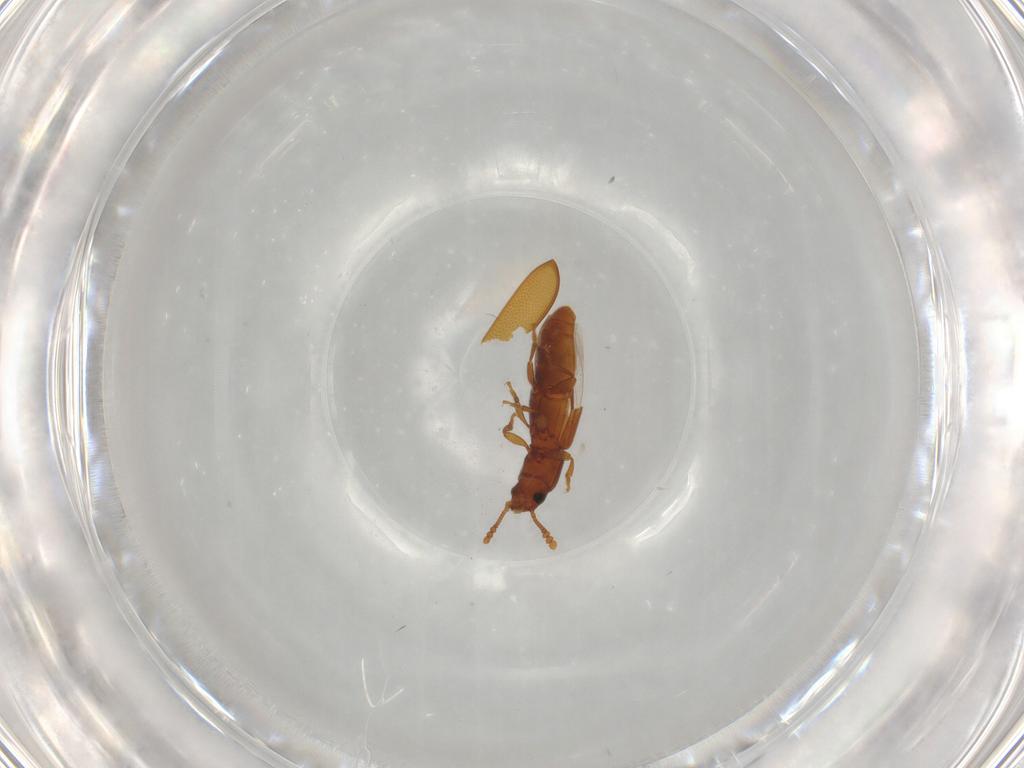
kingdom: Animalia
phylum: Arthropoda
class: Insecta
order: Coleoptera
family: Tenebrionidae
